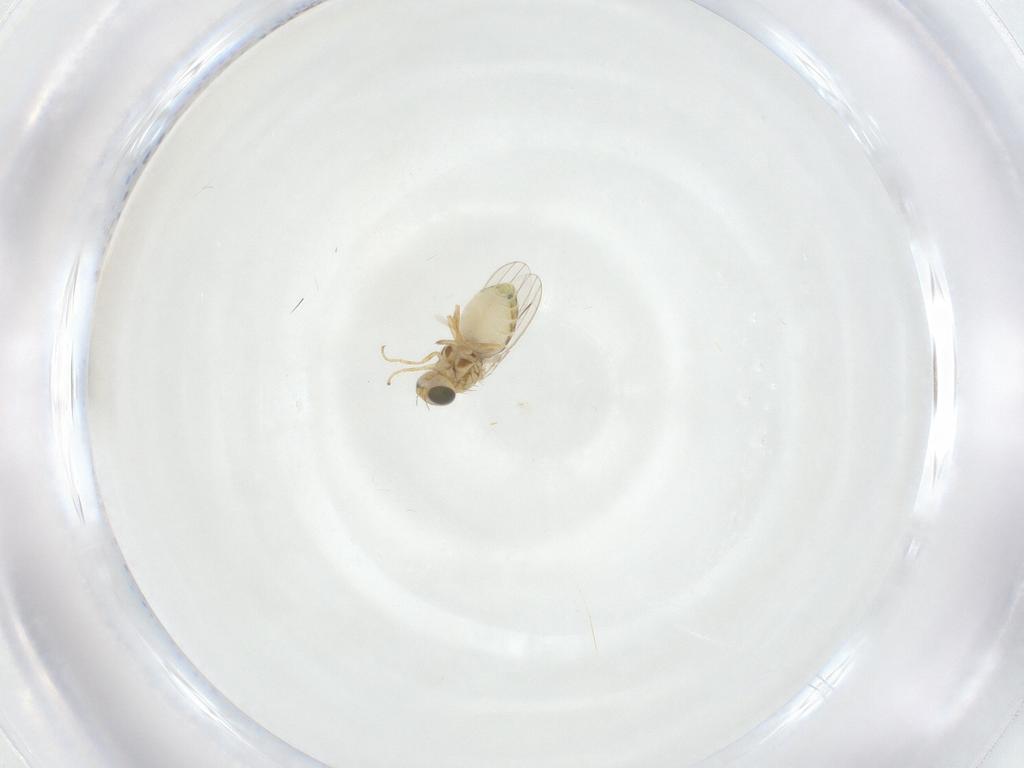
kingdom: Animalia
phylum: Arthropoda
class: Insecta
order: Diptera
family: Chyromyidae
